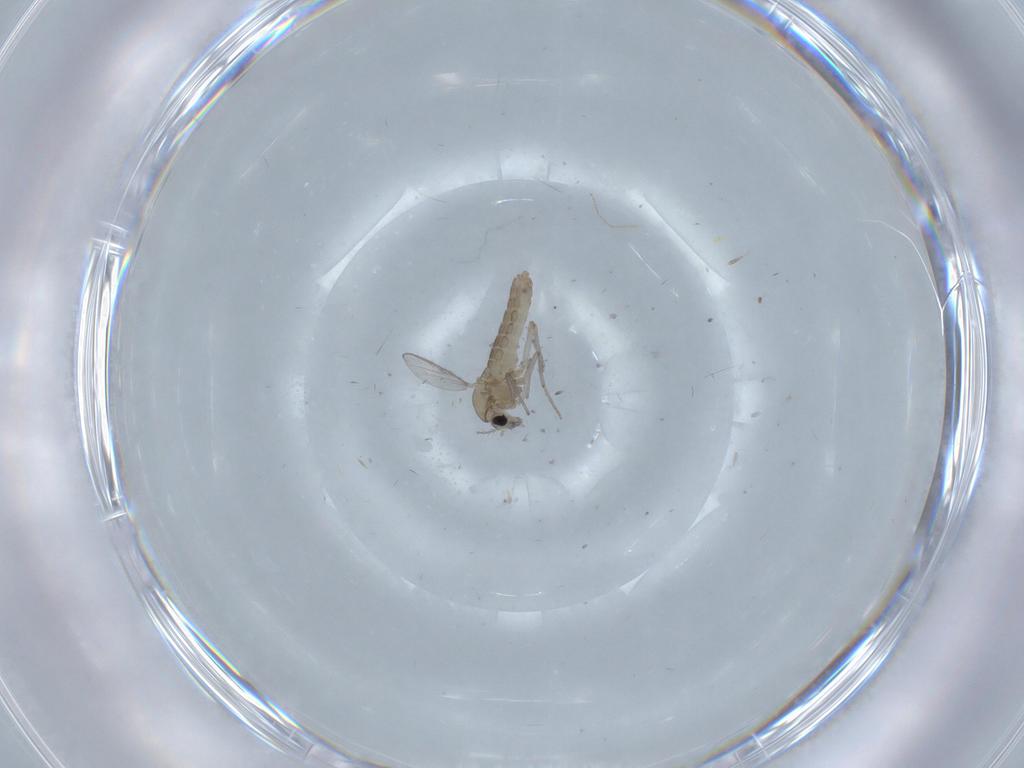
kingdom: Animalia
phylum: Arthropoda
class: Insecta
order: Diptera
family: Chironomidae
